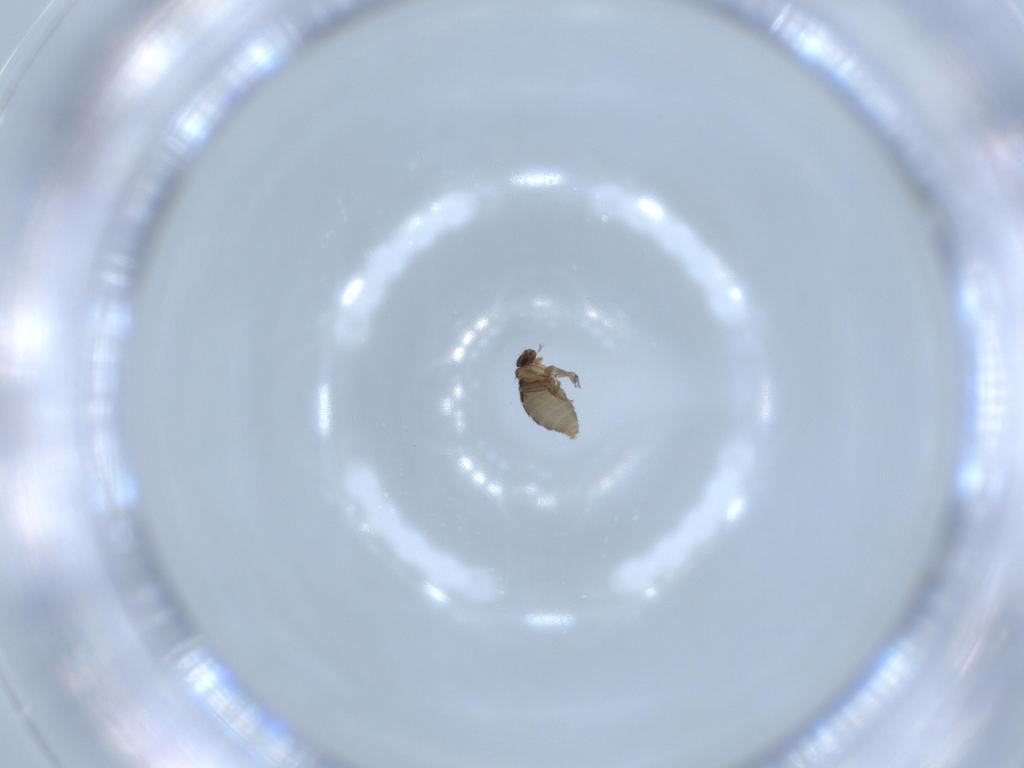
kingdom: Animalia
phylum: Arthropoda
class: Insecta
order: Diptera
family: Phoridae
